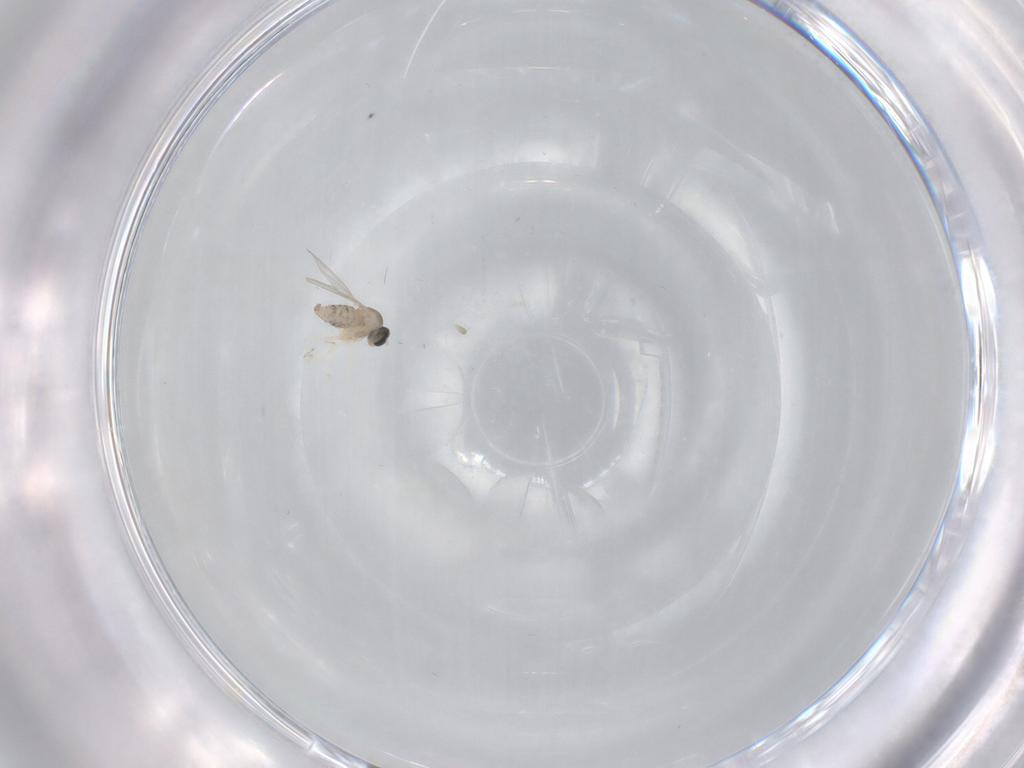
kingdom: Animalia
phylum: Arthropoda
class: Insecta
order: Diptera
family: Cecidomyiidae
